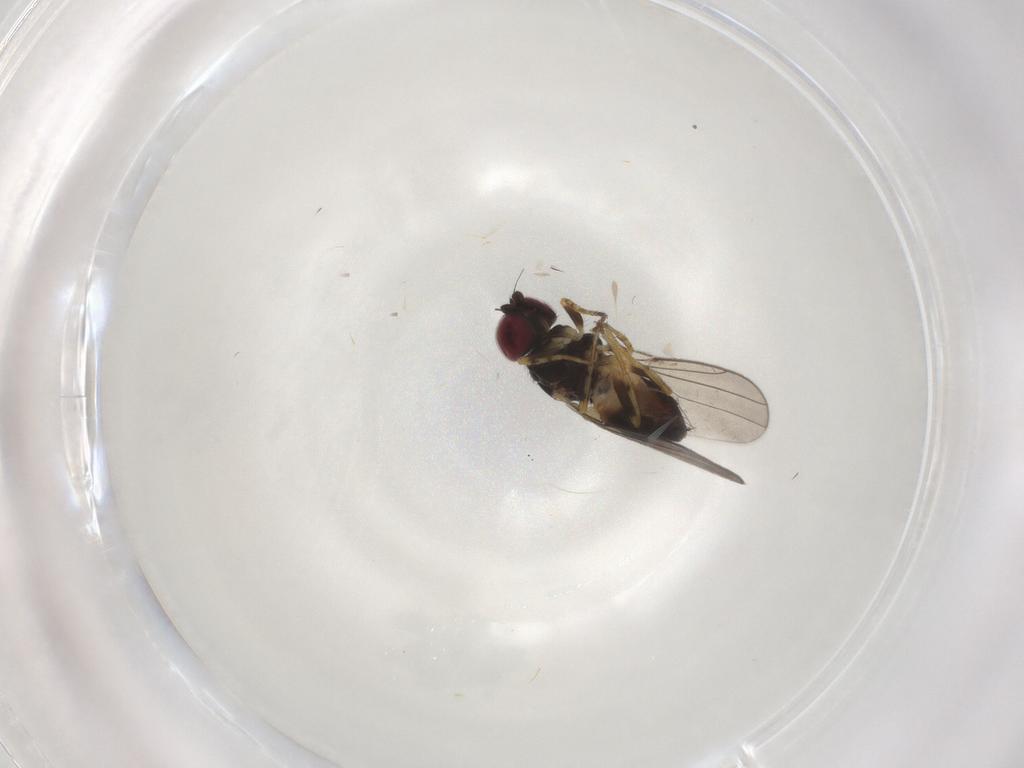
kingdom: Animalia
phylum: Arthropoda
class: Insecta
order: Diptera
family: Chloropidae
